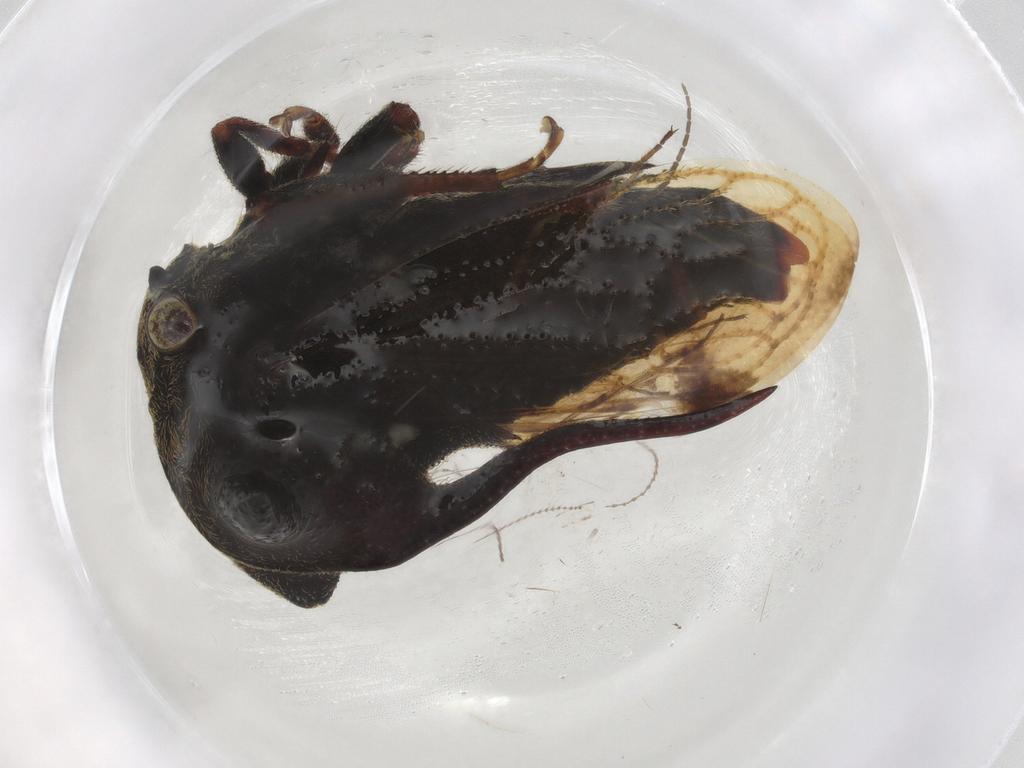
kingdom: Animalia
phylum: Arthropoda
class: Insecta
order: Hemiptera
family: Membracidae
